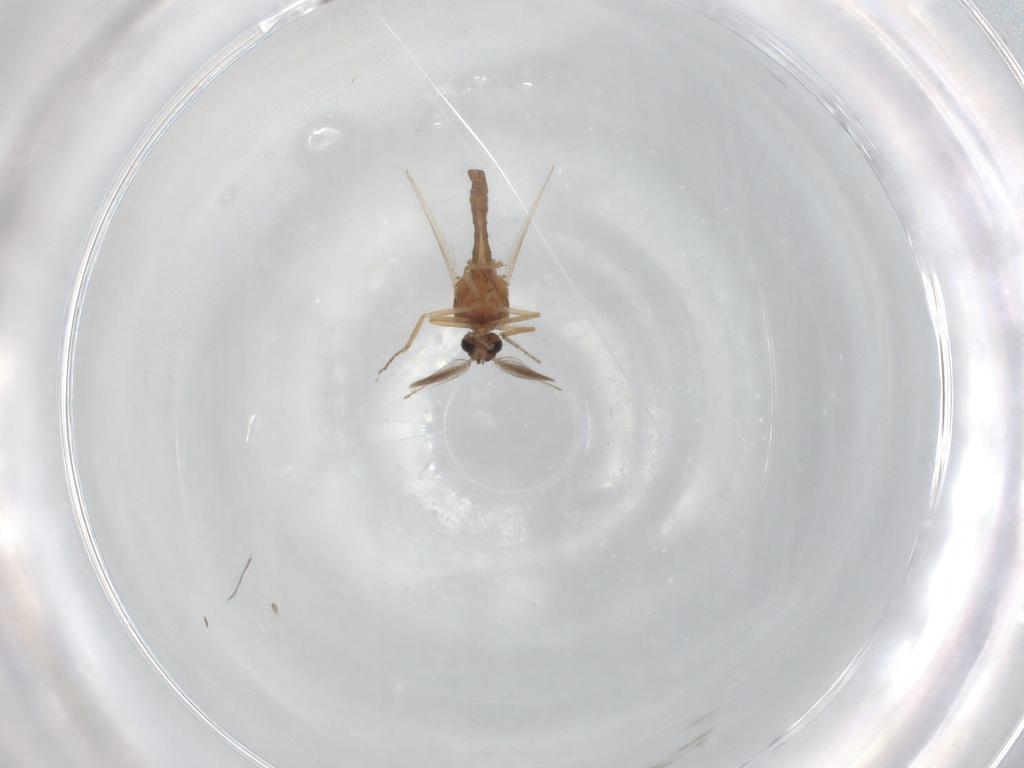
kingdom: Animalia
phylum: Arthropoda
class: Insecta
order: Diptera
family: Ceratopogonidae
